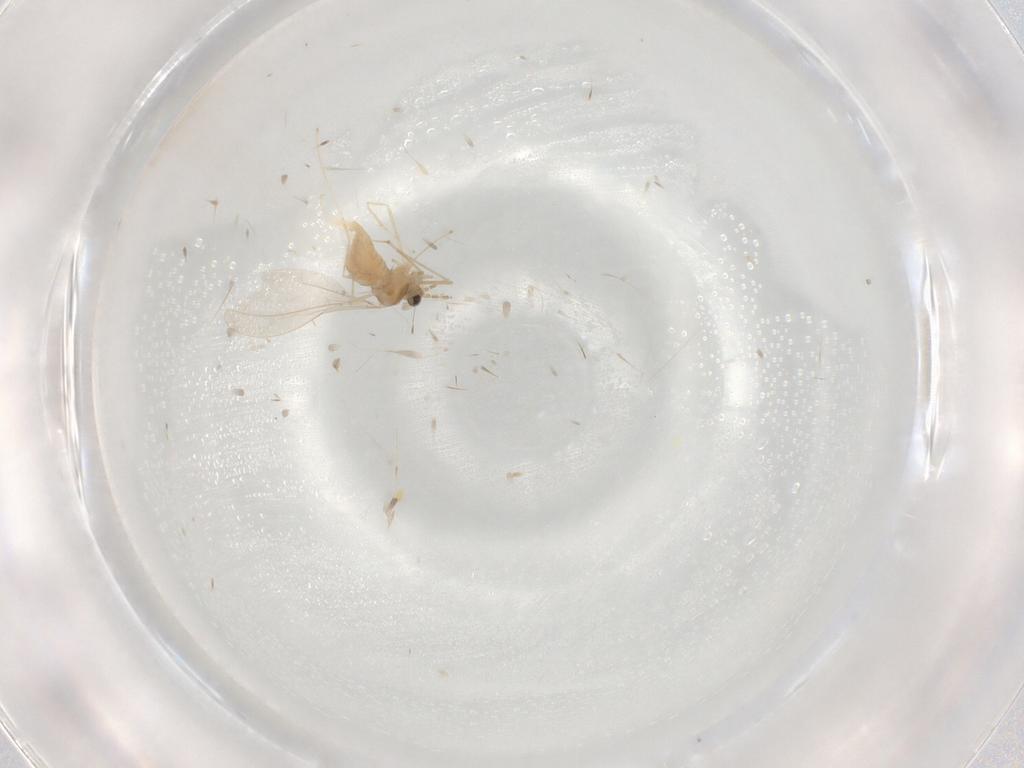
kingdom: Animalia
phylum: Arthropoda
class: Insecta
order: Diptera
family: Cecidomyiidae
